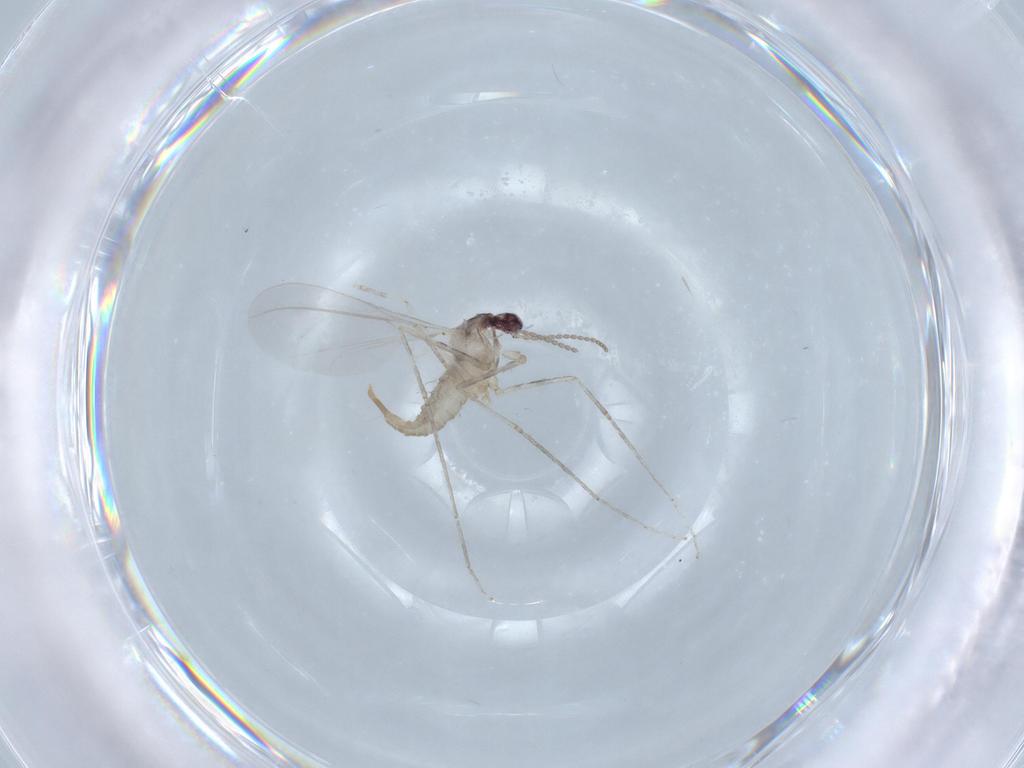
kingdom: Animalia
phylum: Arthropoda
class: Insecta
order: Diptera
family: Cecidomyiidae
